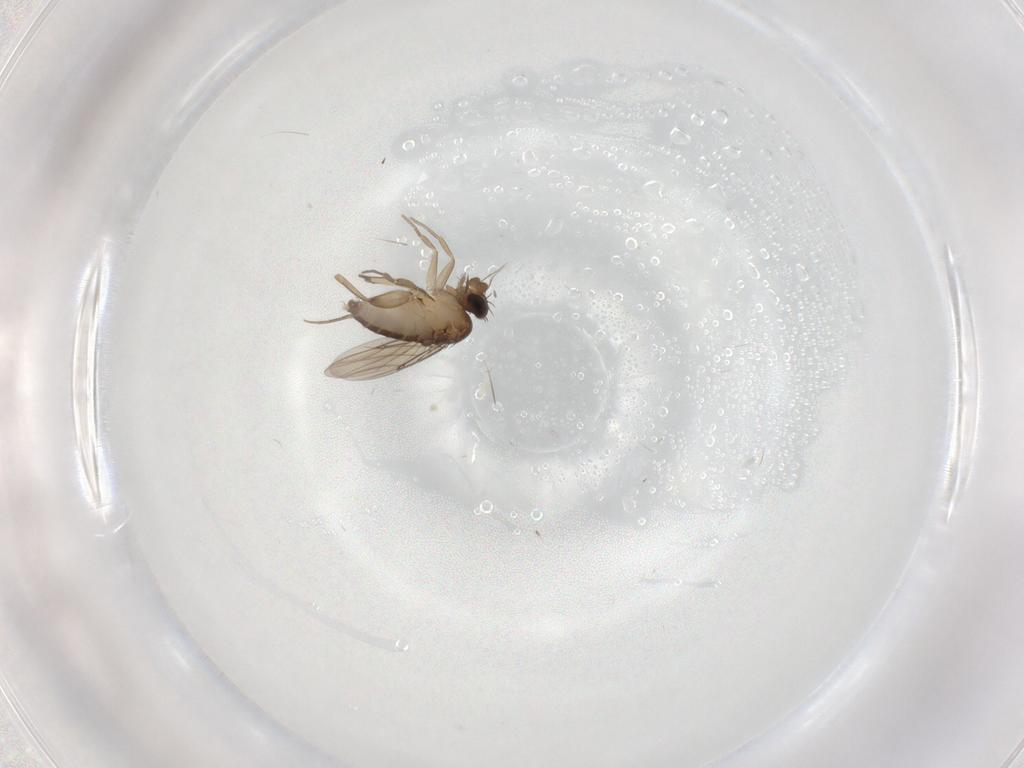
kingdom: Animalia
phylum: Arthropoda
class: Insecta
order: Diptera
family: Phoridae
